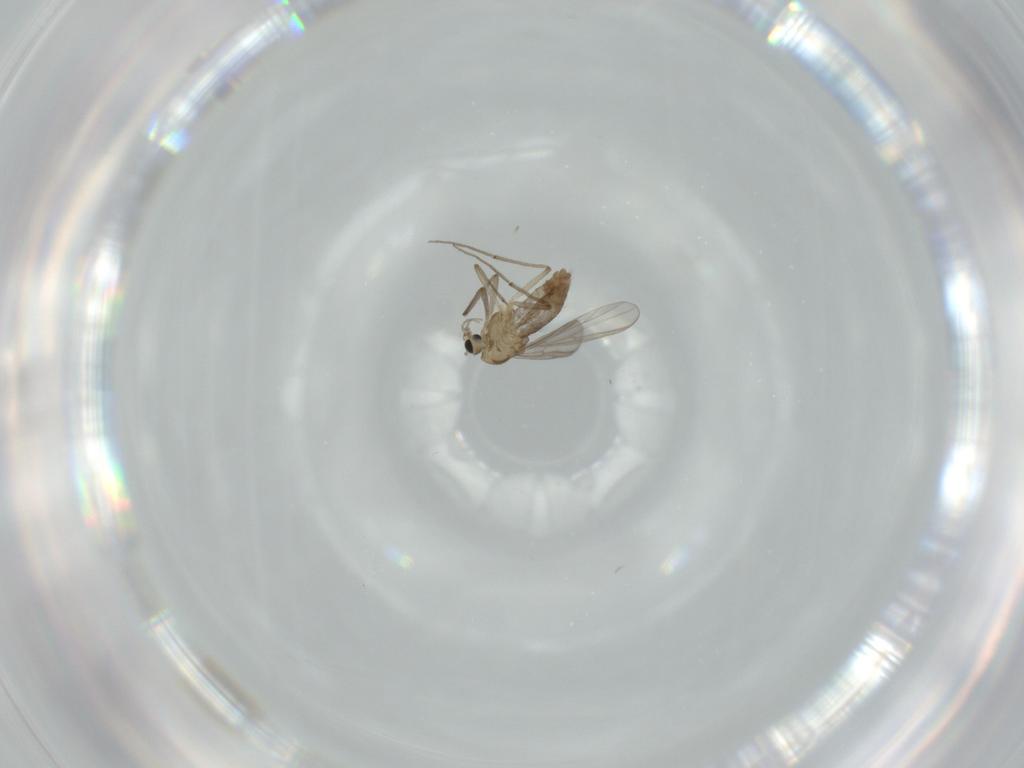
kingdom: Animalia
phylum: Arthropoda
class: Insecta
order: Diptera
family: Chironomidae
